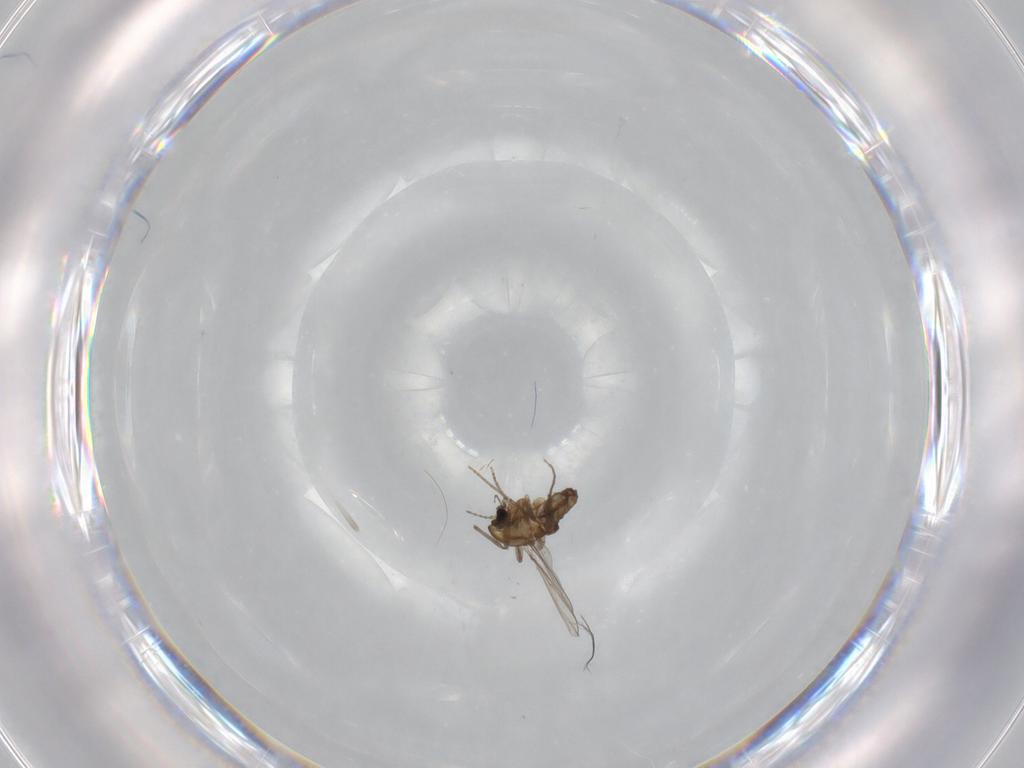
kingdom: Animalia
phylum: Arthropoda
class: Insecta
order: Diptera
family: Chironomidae
